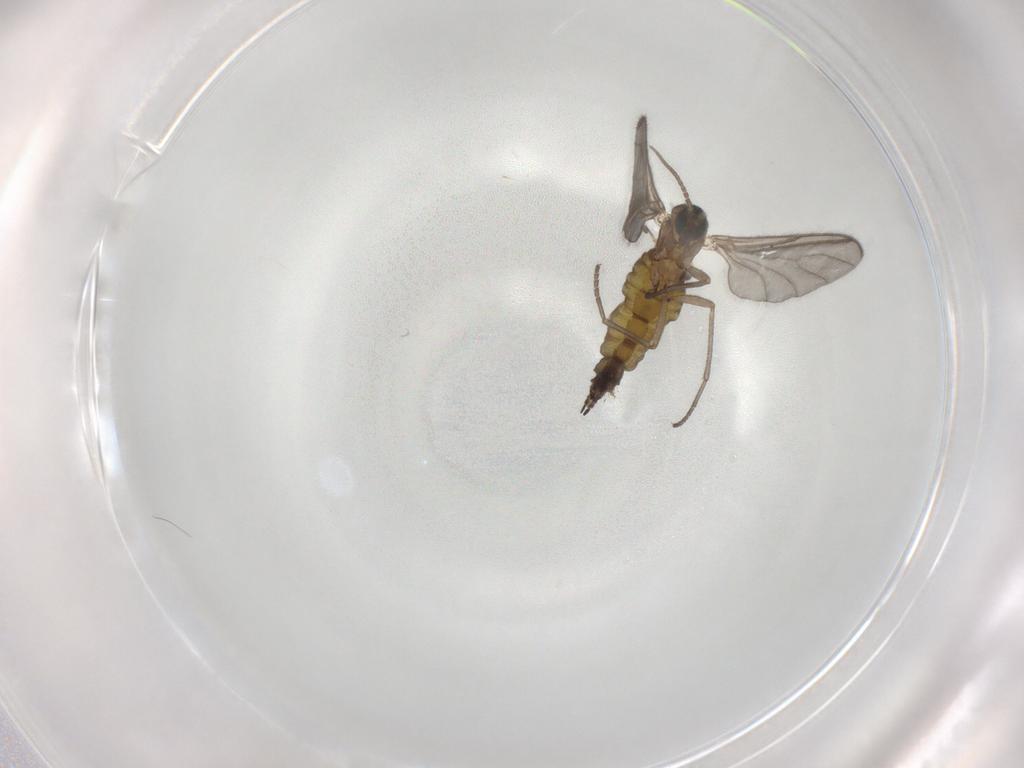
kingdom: Animalia
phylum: Arthropoda
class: Insecta
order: Diptera
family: Sciaridae
